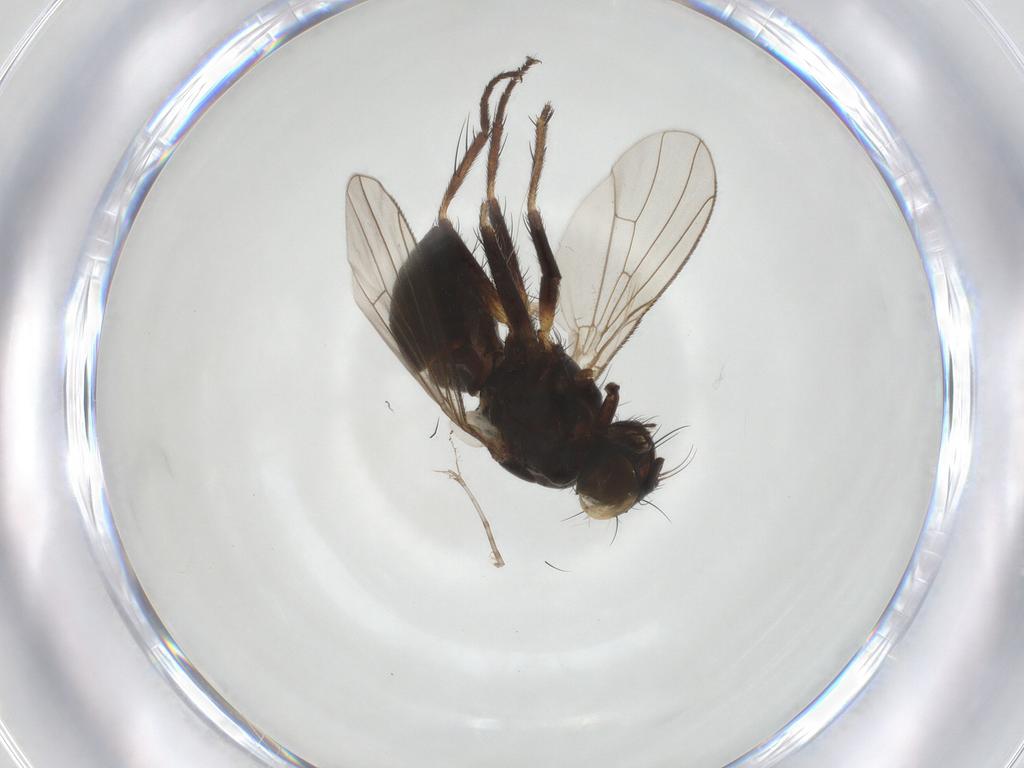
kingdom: Animalia
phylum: Arthropoda
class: Insecta
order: Diptera
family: Muscidae
